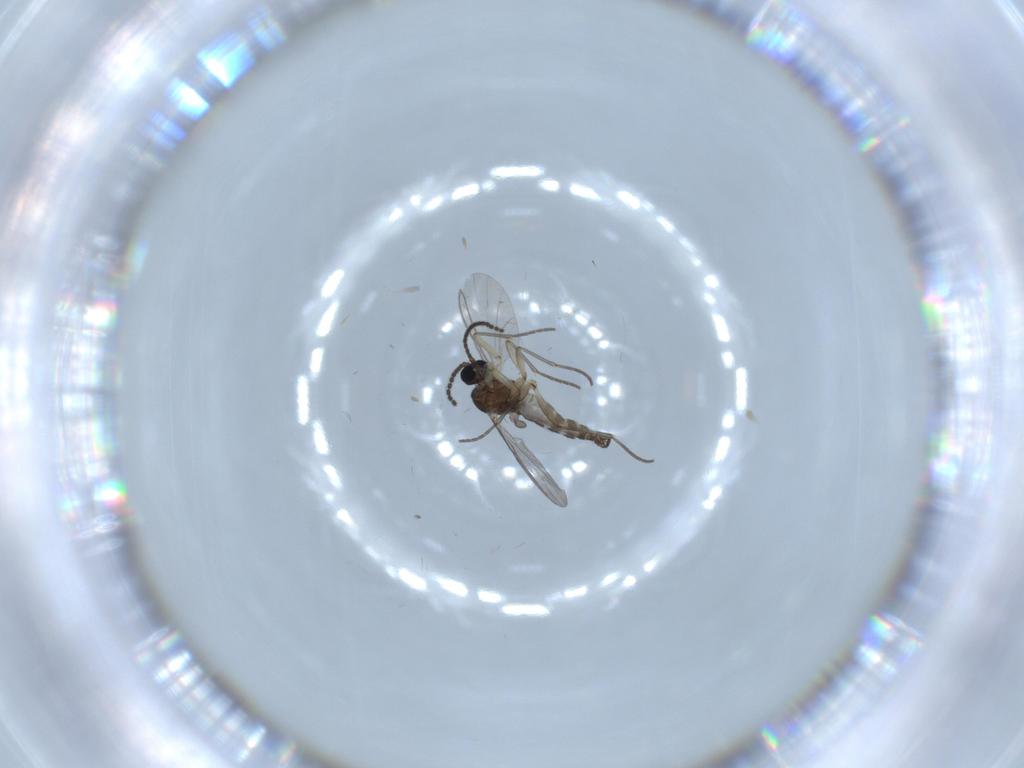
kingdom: Animalia
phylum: Arthropoda
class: Insecta
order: Diptera
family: Sciaridae
